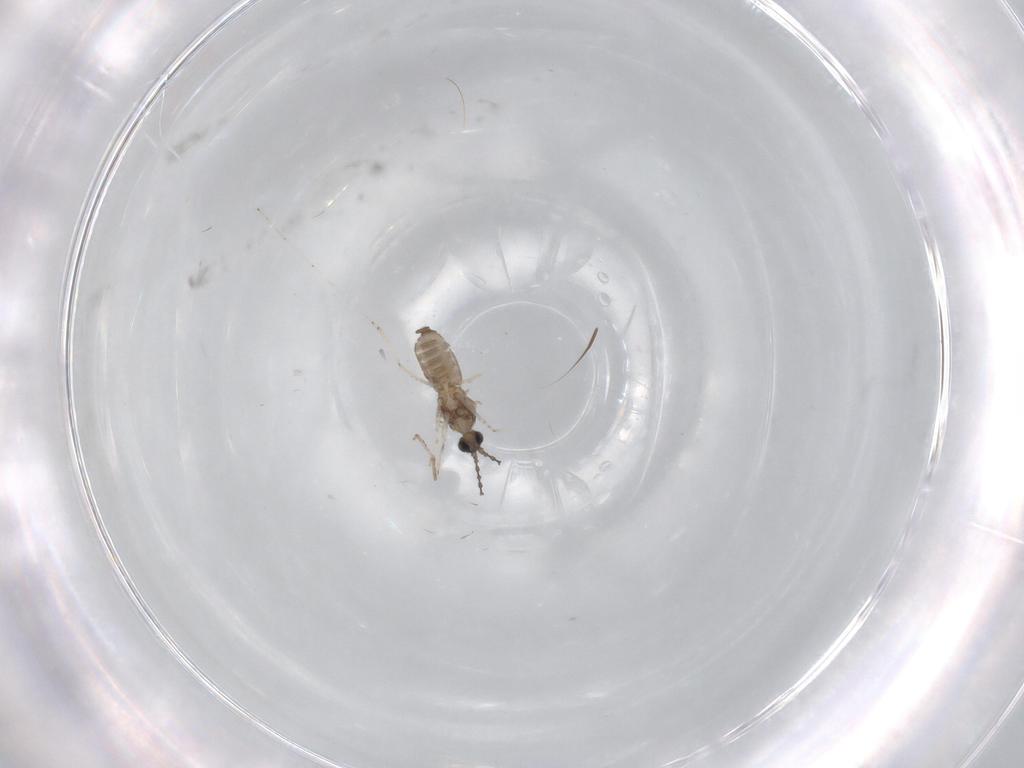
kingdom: Animalia
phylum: Arthropoda
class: Insecta
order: Diptera
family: Cecidomyiidae
